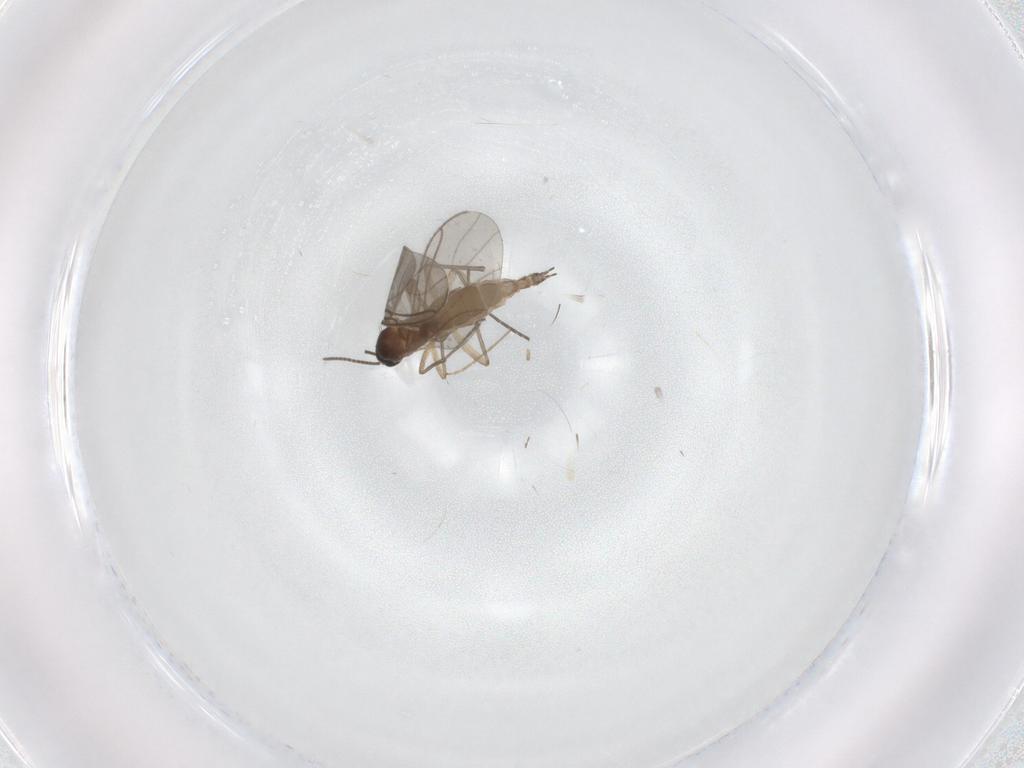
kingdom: Animalia
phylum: Arthropoda
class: Insecta
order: Diptera
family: Sciaridae
